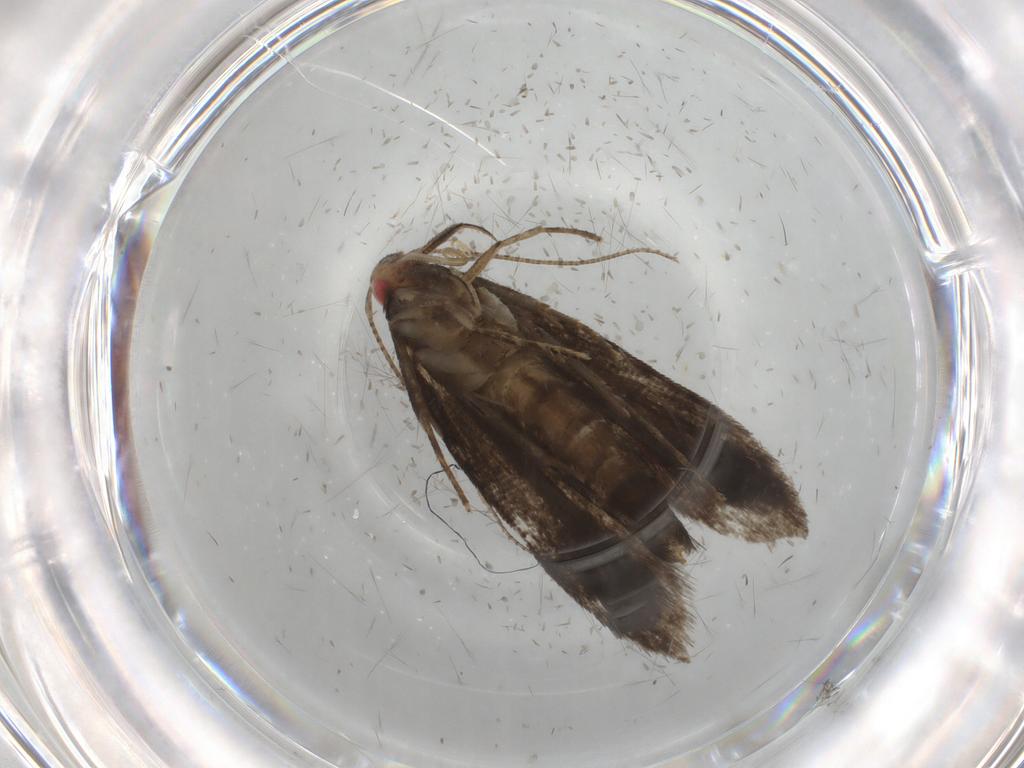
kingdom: Animalia
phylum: Arthropoda
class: Insecta
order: Lepidoptera
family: Gelechiidae
